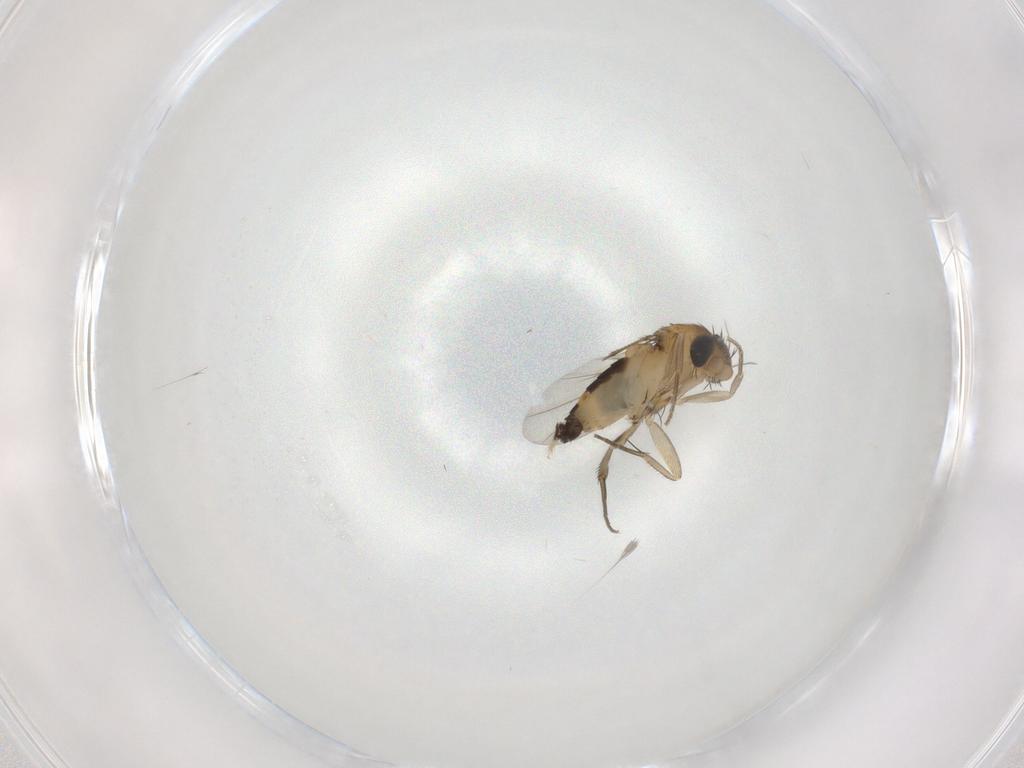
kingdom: Animalia
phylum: Arthropoda
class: Insecta
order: Diptera
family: Phoridae
